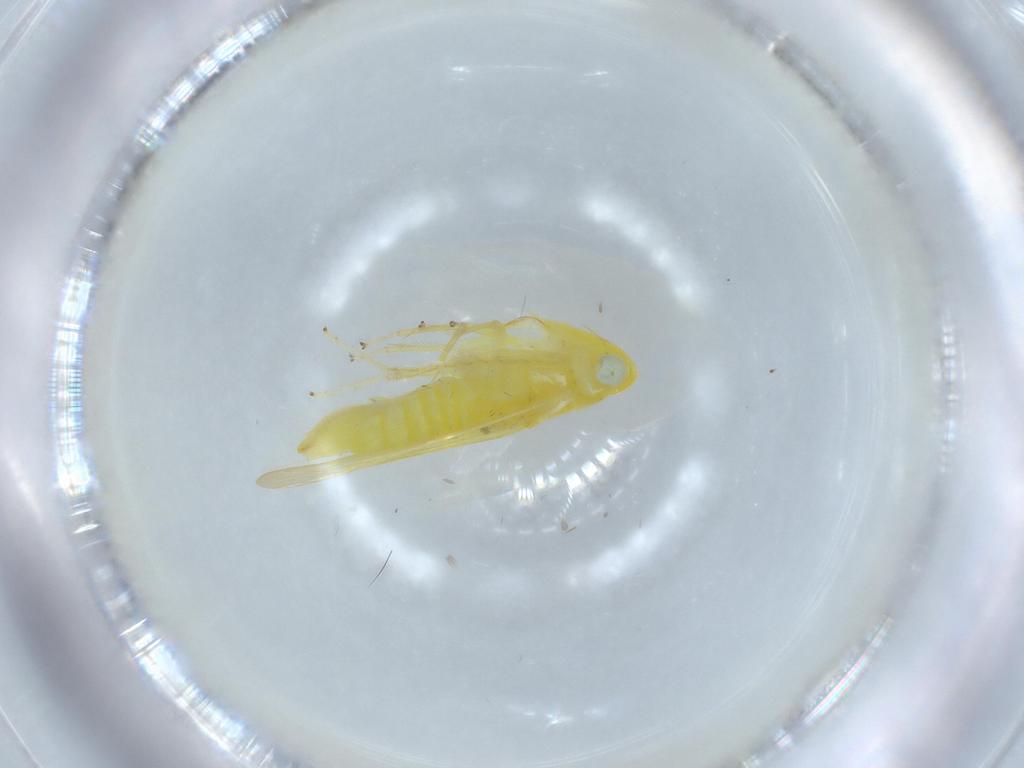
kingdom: Animalia
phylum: Arthropoda
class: Insecta
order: Hemiptera
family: Cicadellidae
